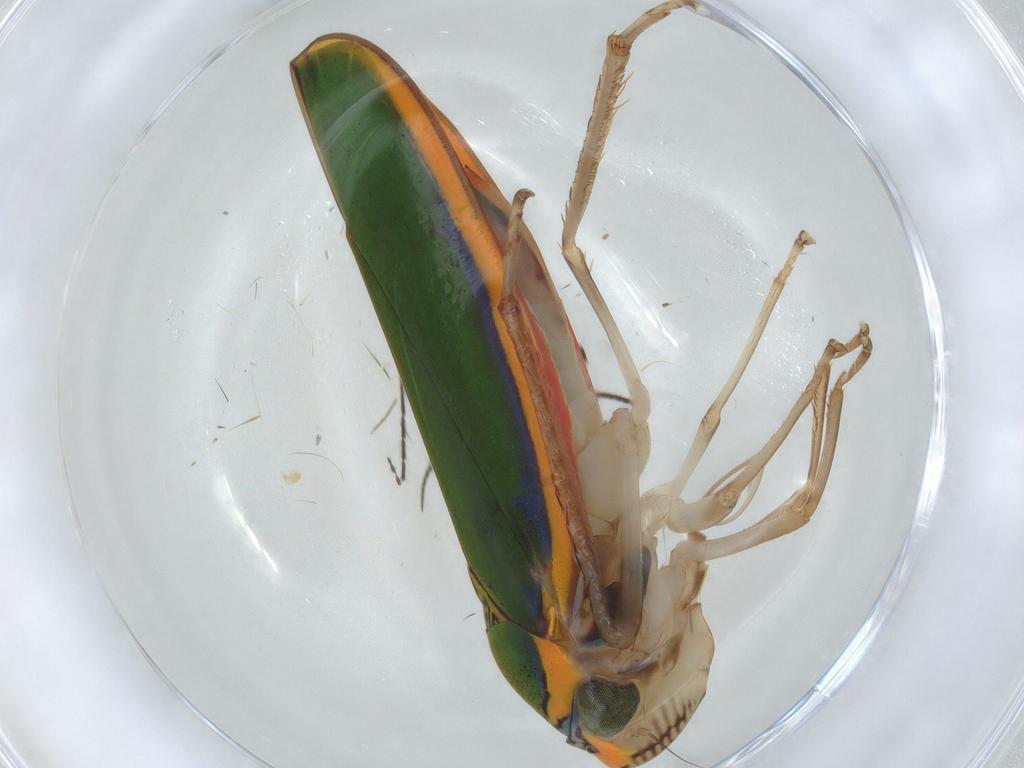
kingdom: Animalia
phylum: Arthropoda
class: Insecta
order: Hemiptera
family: Cicadellidae
